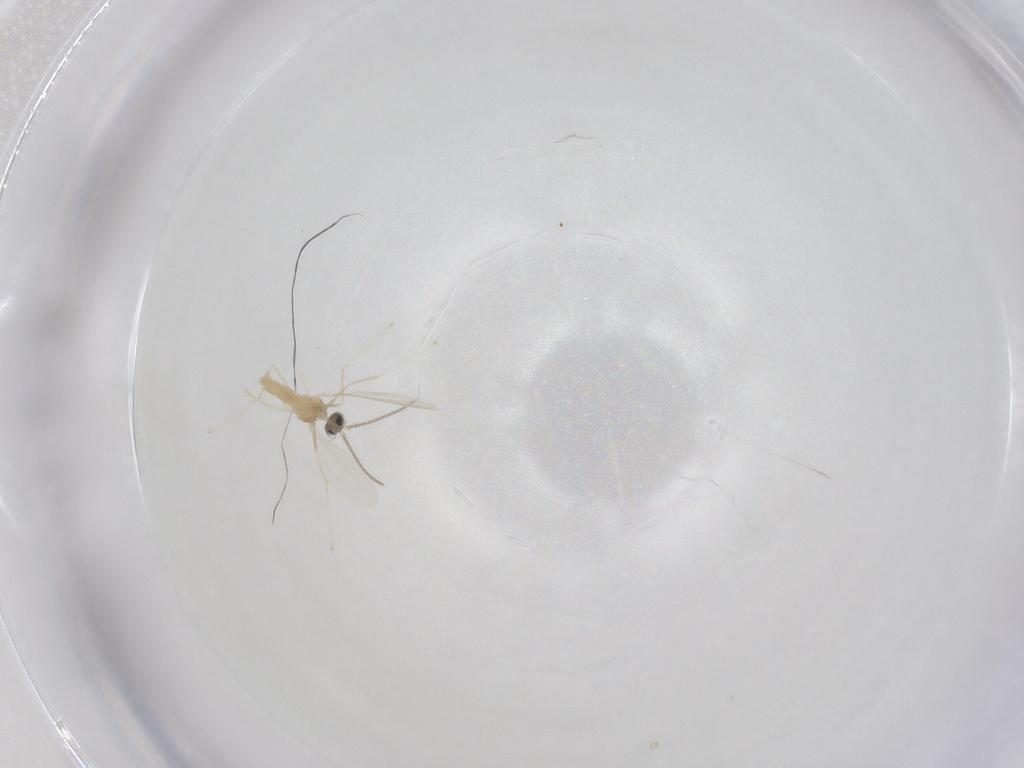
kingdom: Animalia
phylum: Arthropoda
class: Insecta
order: Diptera
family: Cecidomyiidae
